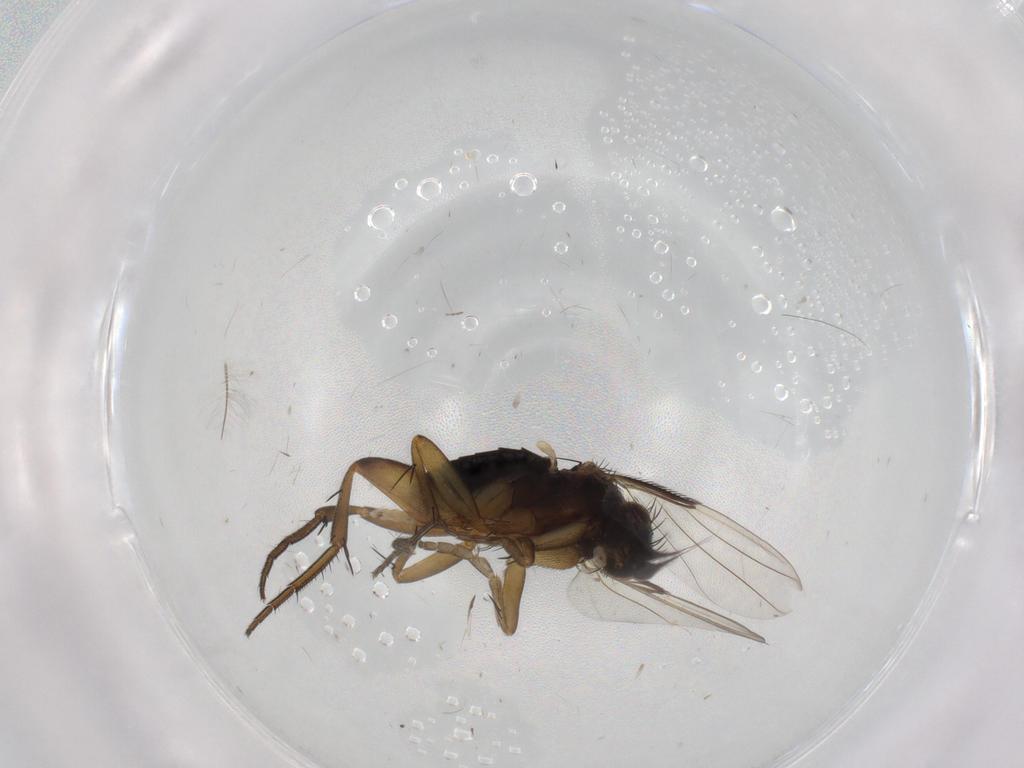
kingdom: Animalia
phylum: Arthropoda
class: Insecta
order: Diptera
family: Phoridae
